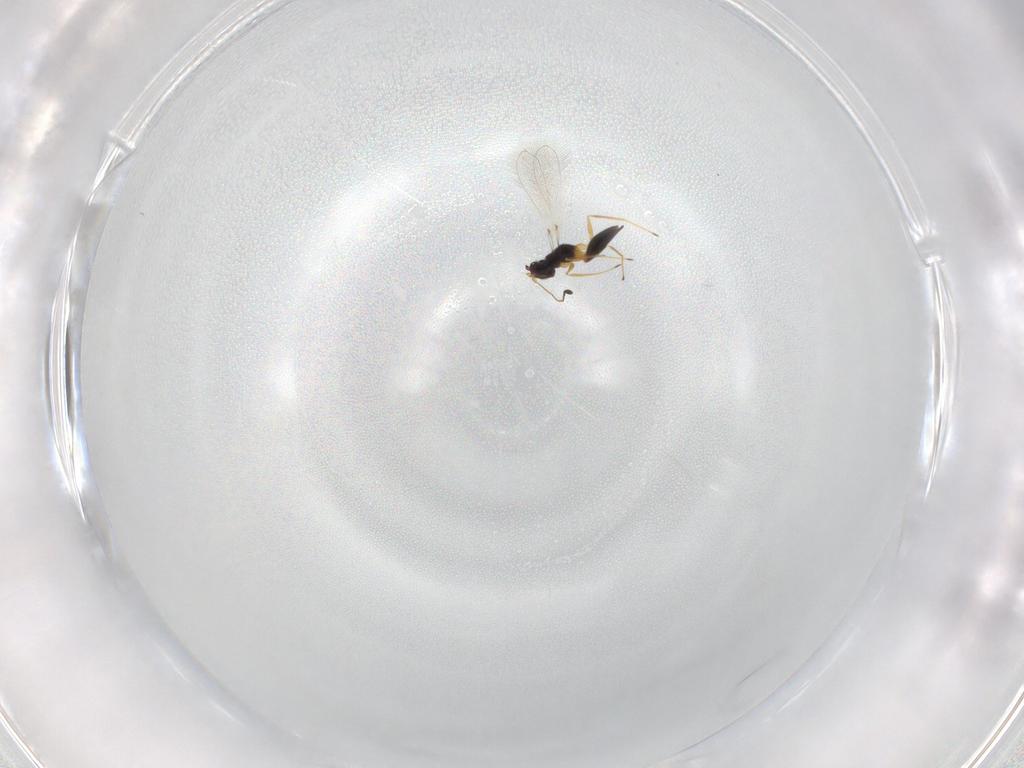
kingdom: Animalia
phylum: Arthropoda
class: Insecta
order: Hymenoptera
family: Mymaridae
